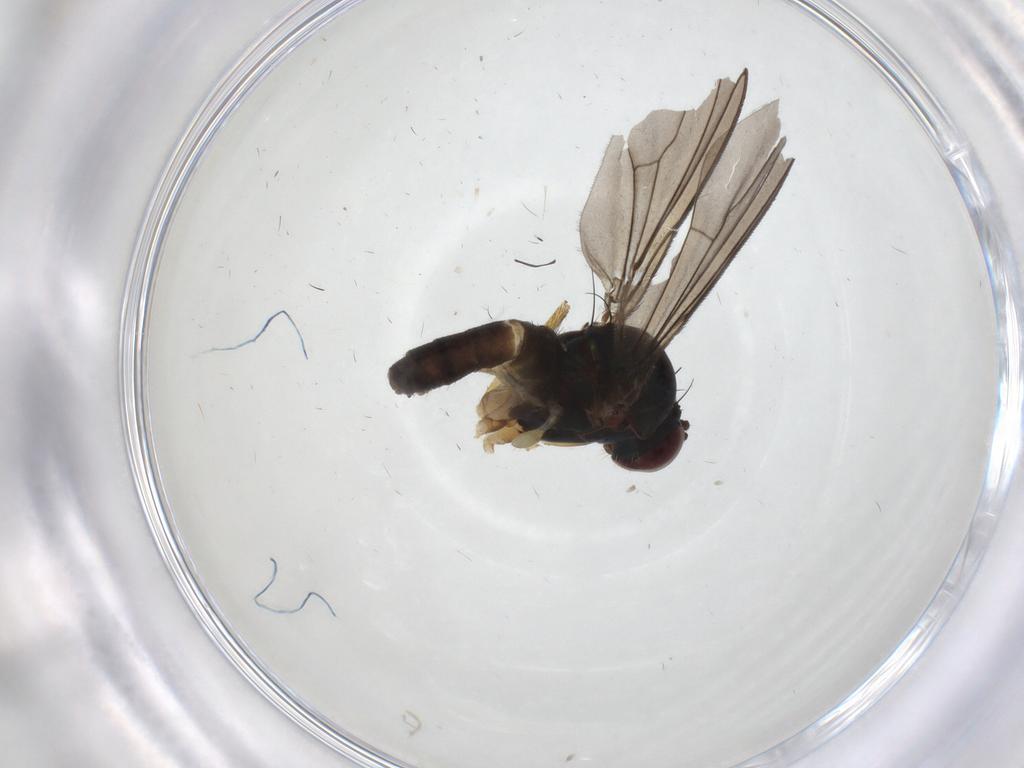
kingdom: Animalia
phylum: Arthropoda
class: Insecta
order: Diptera
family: Dolichopodidae
